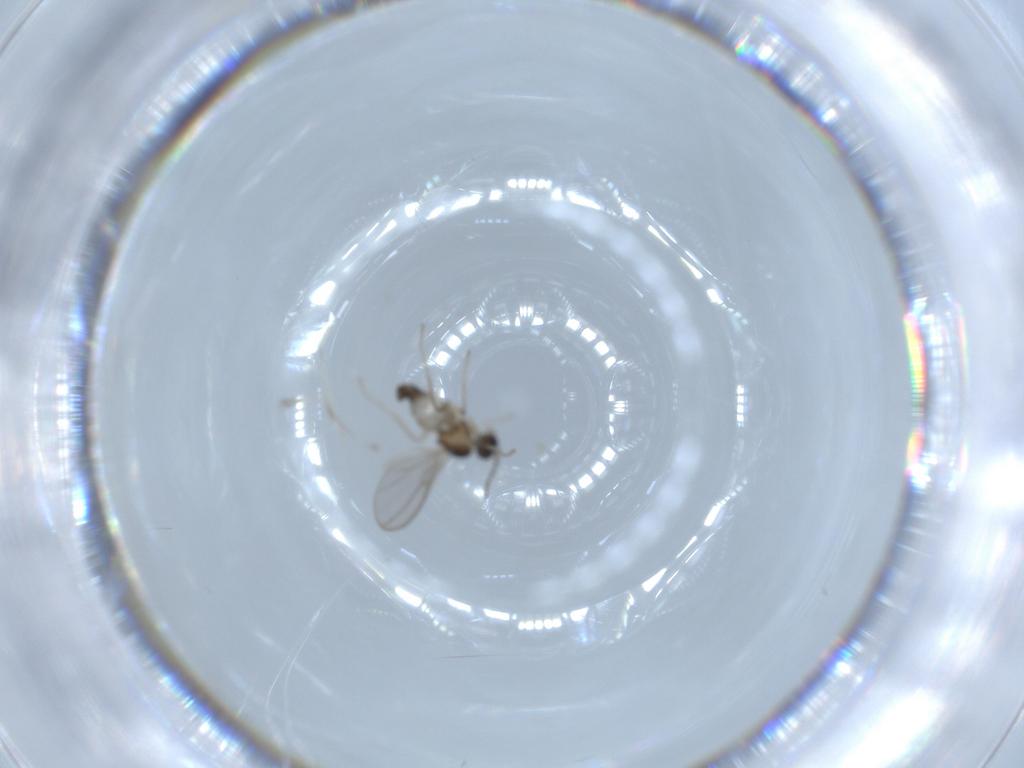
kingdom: Animalia
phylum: Arthropoda
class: Insecta
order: Diptera
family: Cecidomyiidae
